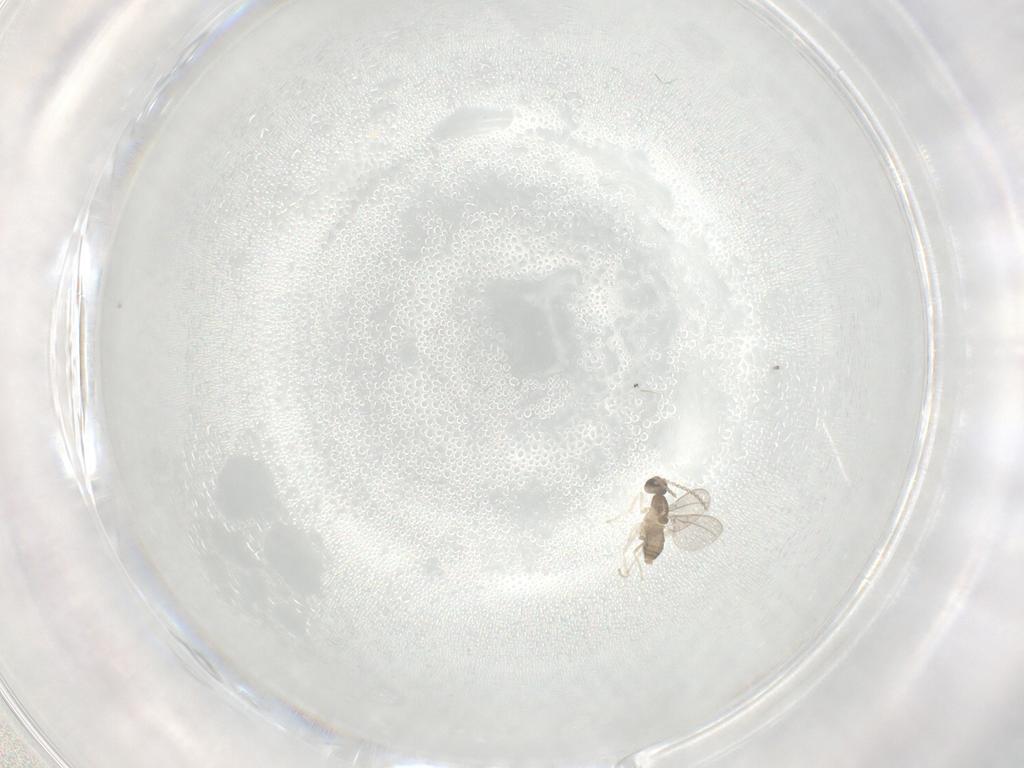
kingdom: Animalia
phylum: Arthropoda
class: Insecta
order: Diptera
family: Cecidomyiidae
